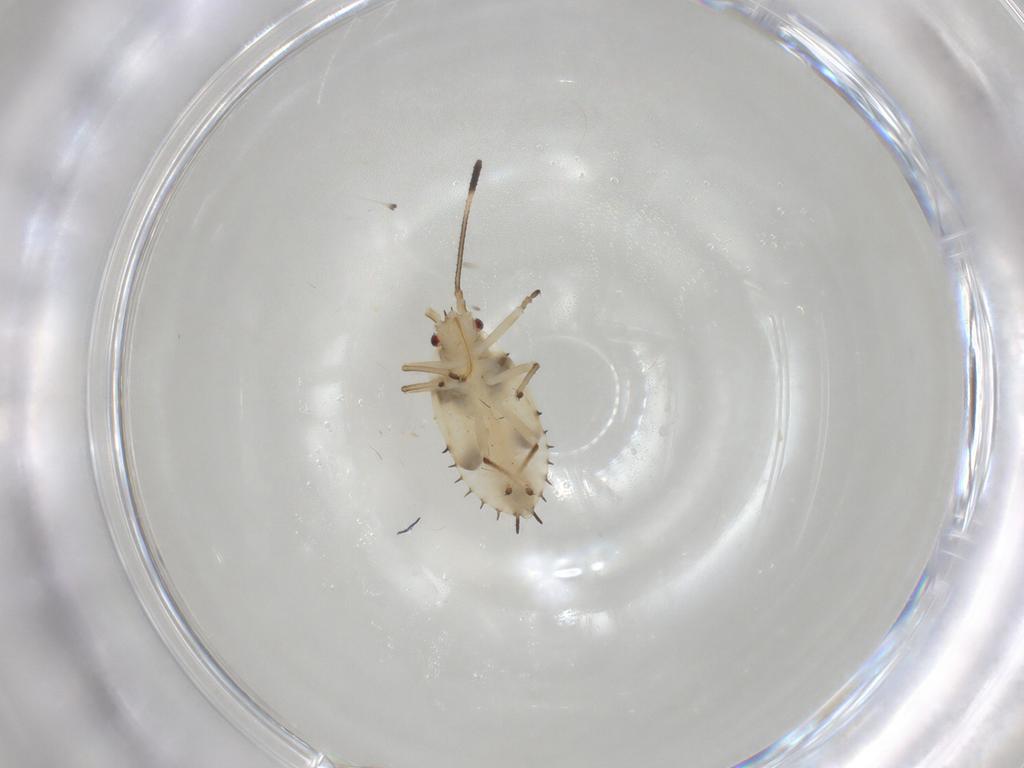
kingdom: Animalia
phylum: Arthropoda
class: Insecta
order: Hemiptera
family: Tingidae
